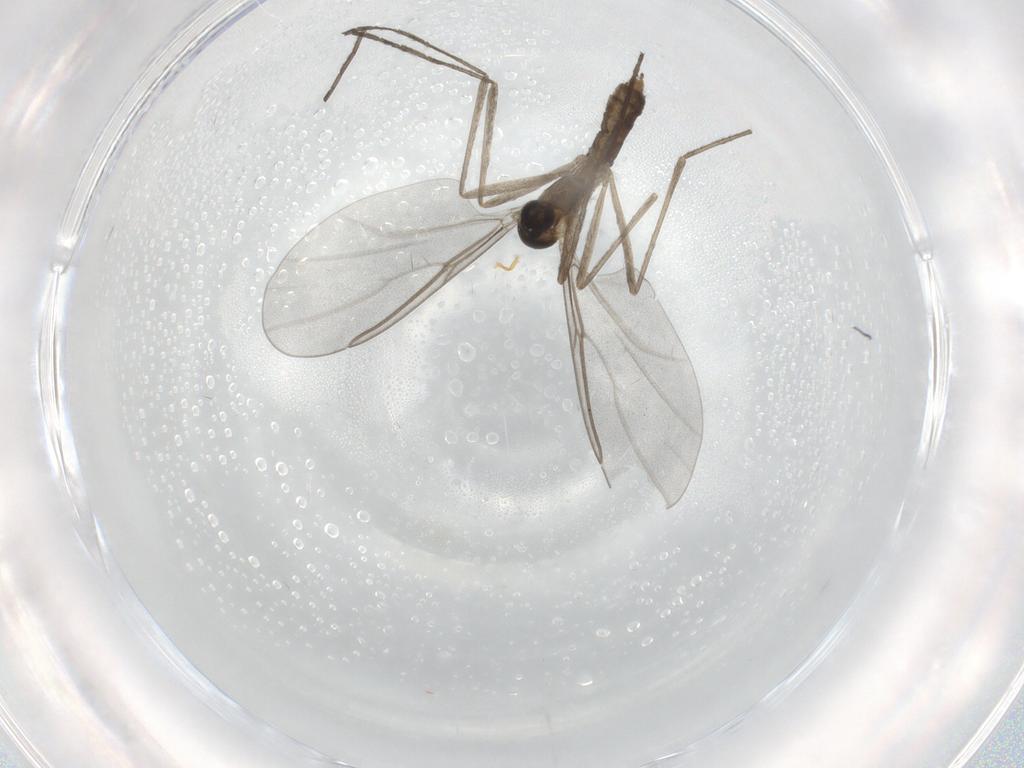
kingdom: Animalia
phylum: Arthropoda
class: Insecta
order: Diptera
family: Cecidomyiidae
